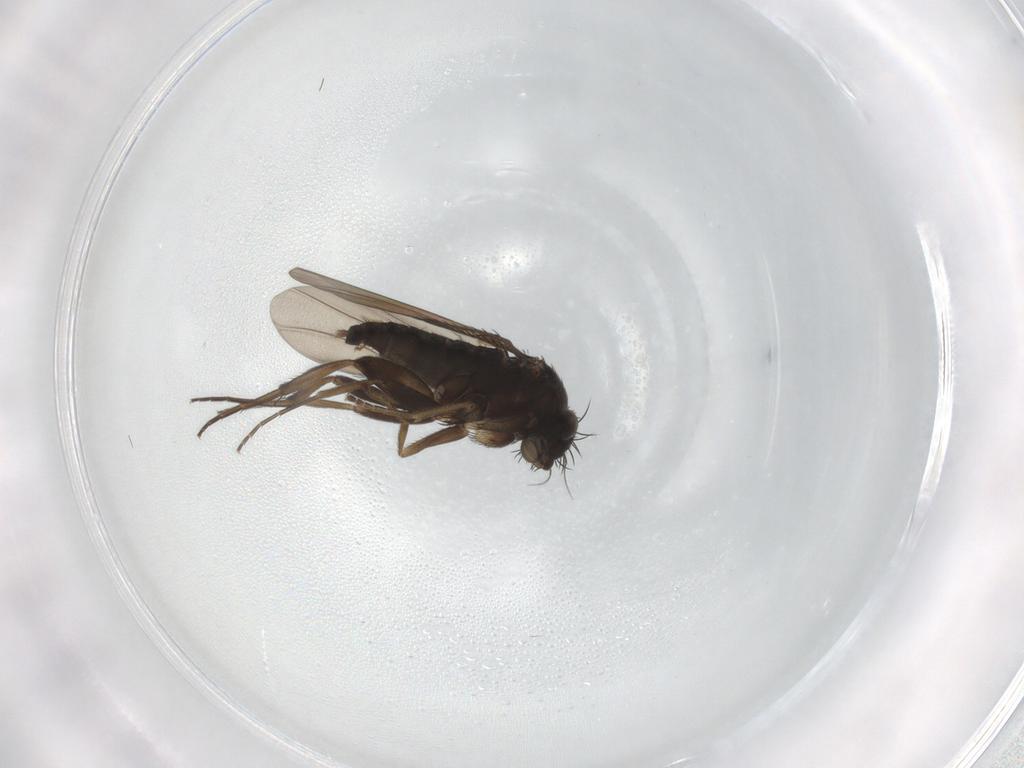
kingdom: Animalia
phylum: Arthropoda
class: Insecta
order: Diptera
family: Phoridae
